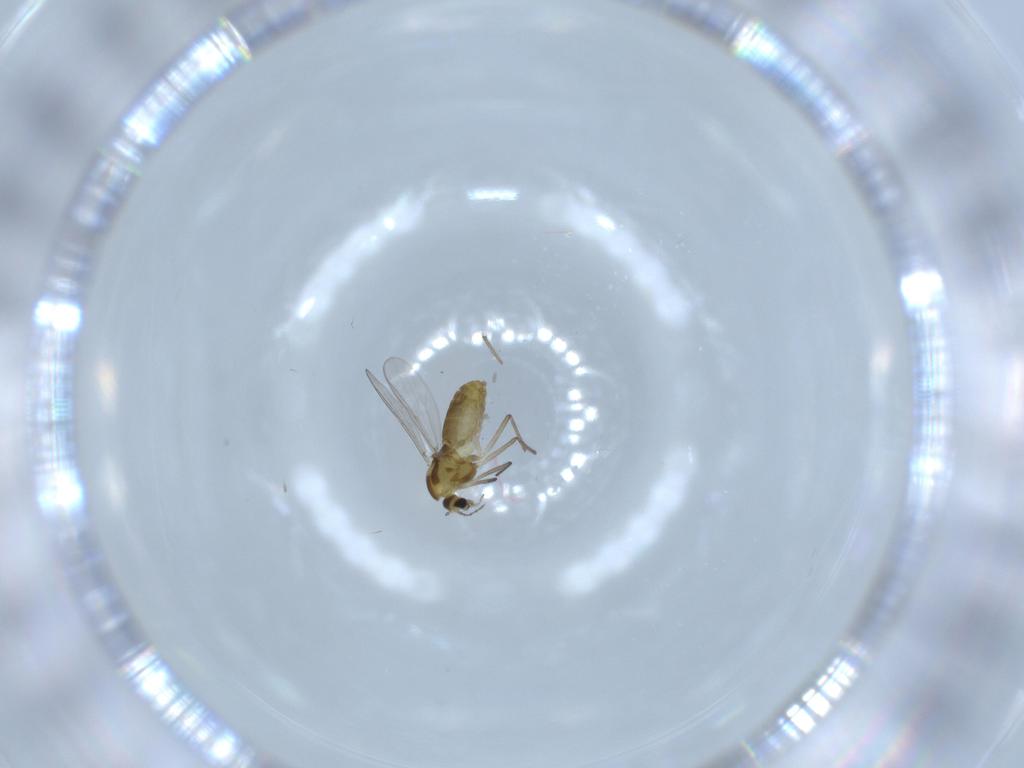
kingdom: Animalia
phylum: Arthropoda
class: Insecta
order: Diptera
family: Chironomidae
